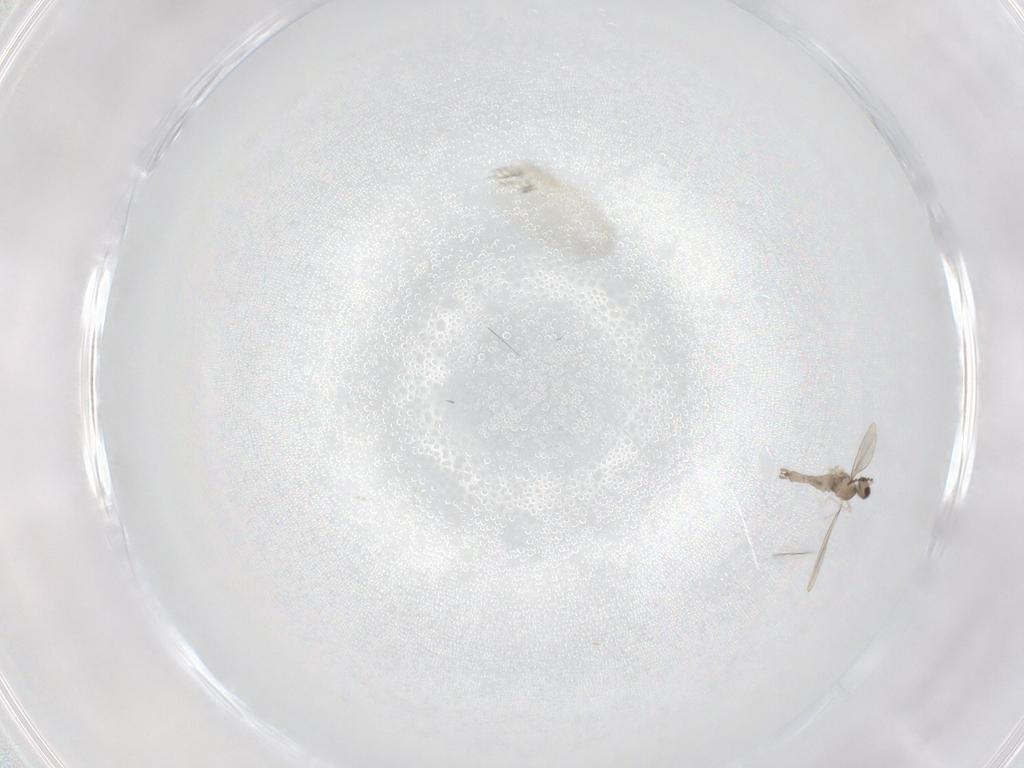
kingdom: Animalia
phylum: Arthropoda
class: Insecta
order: Diptera
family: Cecidomyiidae
